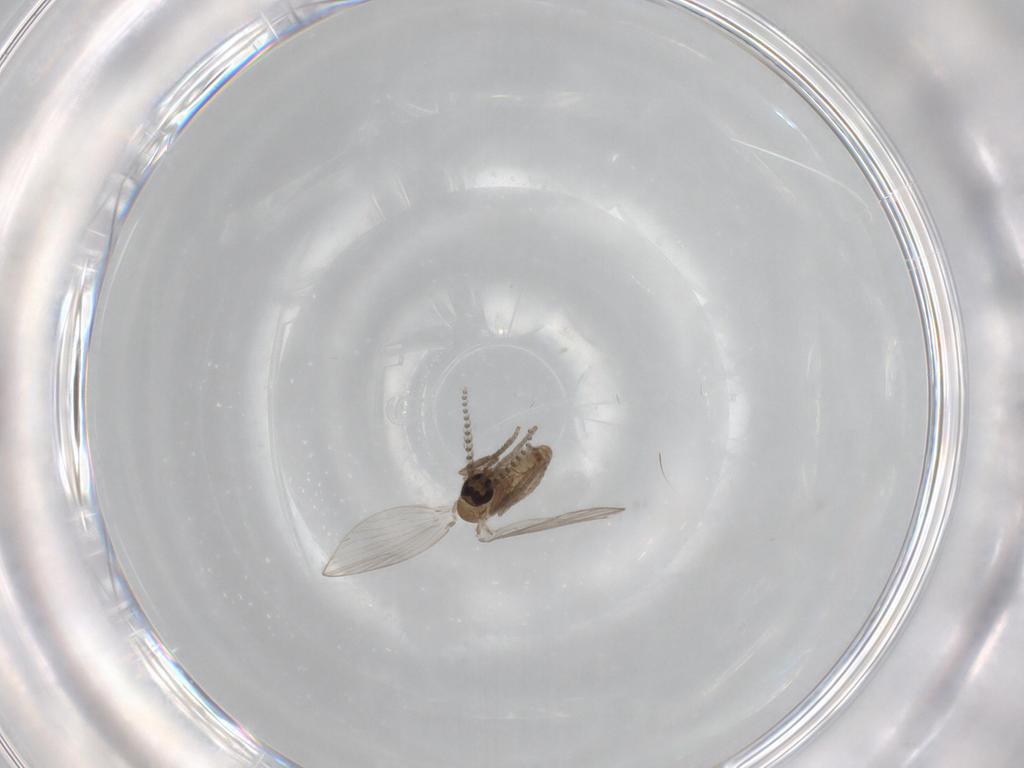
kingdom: Animalia
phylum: Arthropoda
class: Insecta
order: Diptera
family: Psychodidae
